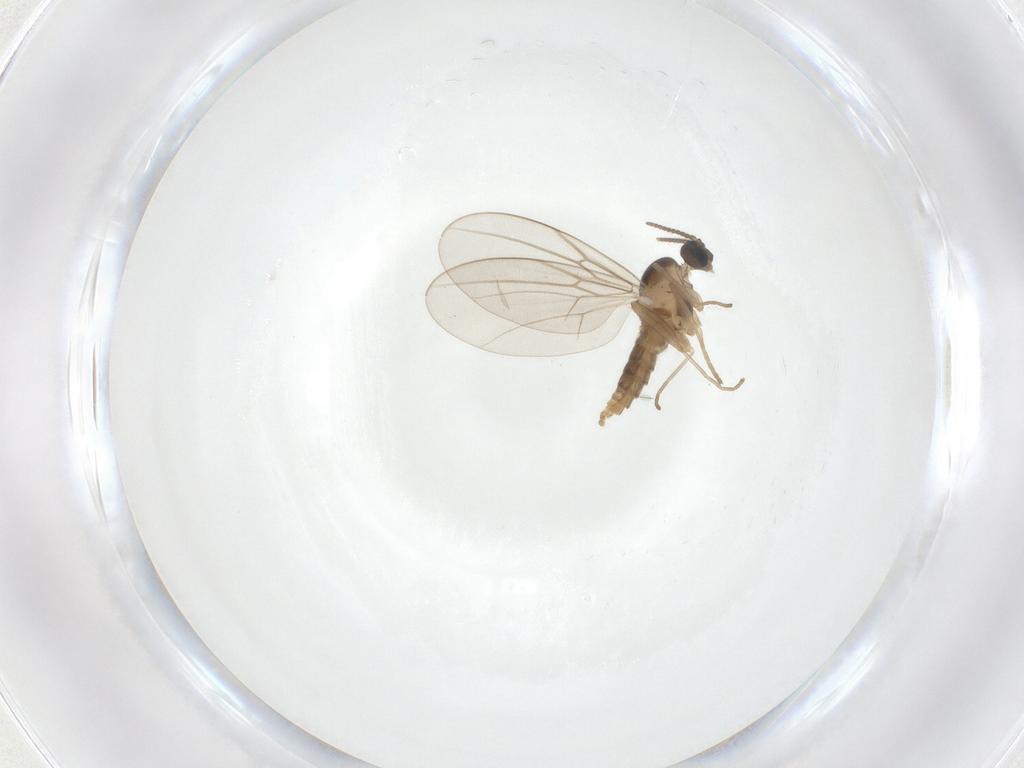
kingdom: Animalia
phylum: Arthropoda
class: Insecta
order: Diptera
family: Cecidomyiidae
